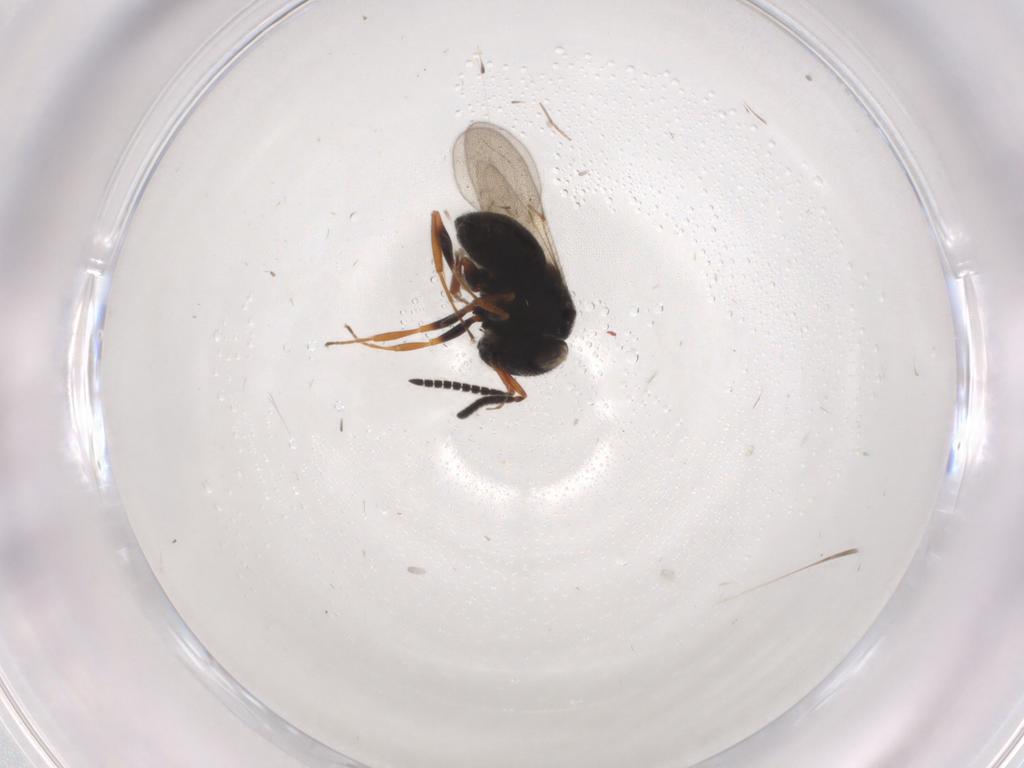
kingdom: Animalia
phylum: Arthropoda
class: Insecta
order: Hymenoptera
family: Scelionidae
